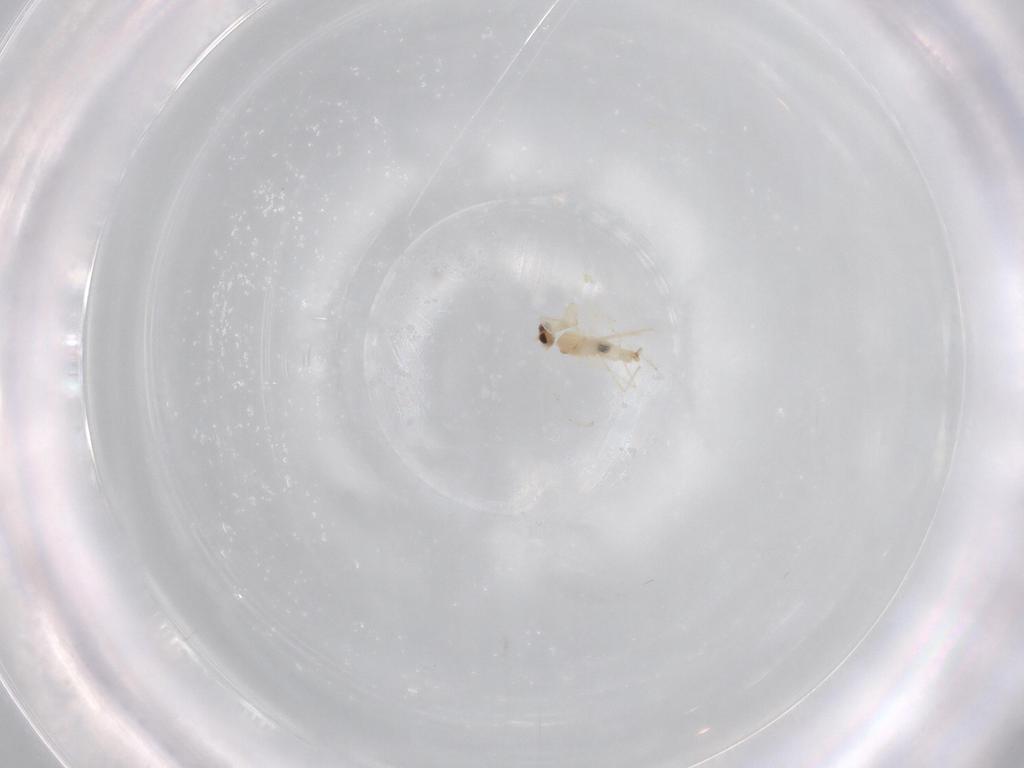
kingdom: Animalia
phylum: Arthropoda
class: Insecta
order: Diptera
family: Cecidomyiidae
